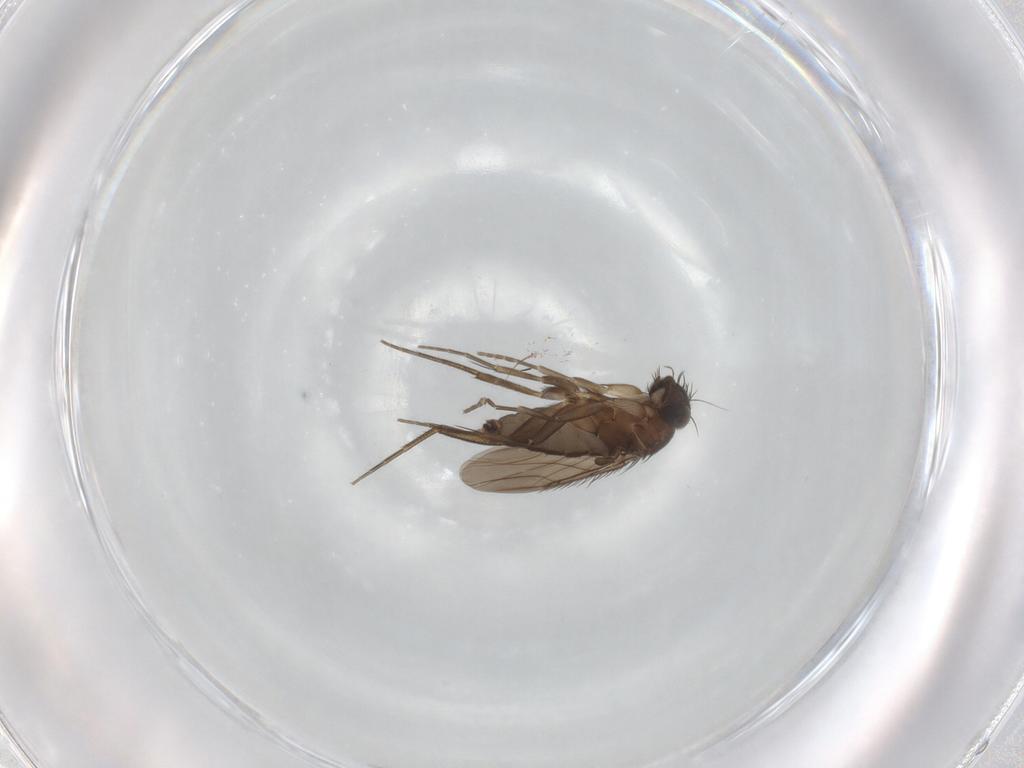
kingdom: Animalia
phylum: Arthropoda
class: Insecta
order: Diptera
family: Phoridae
